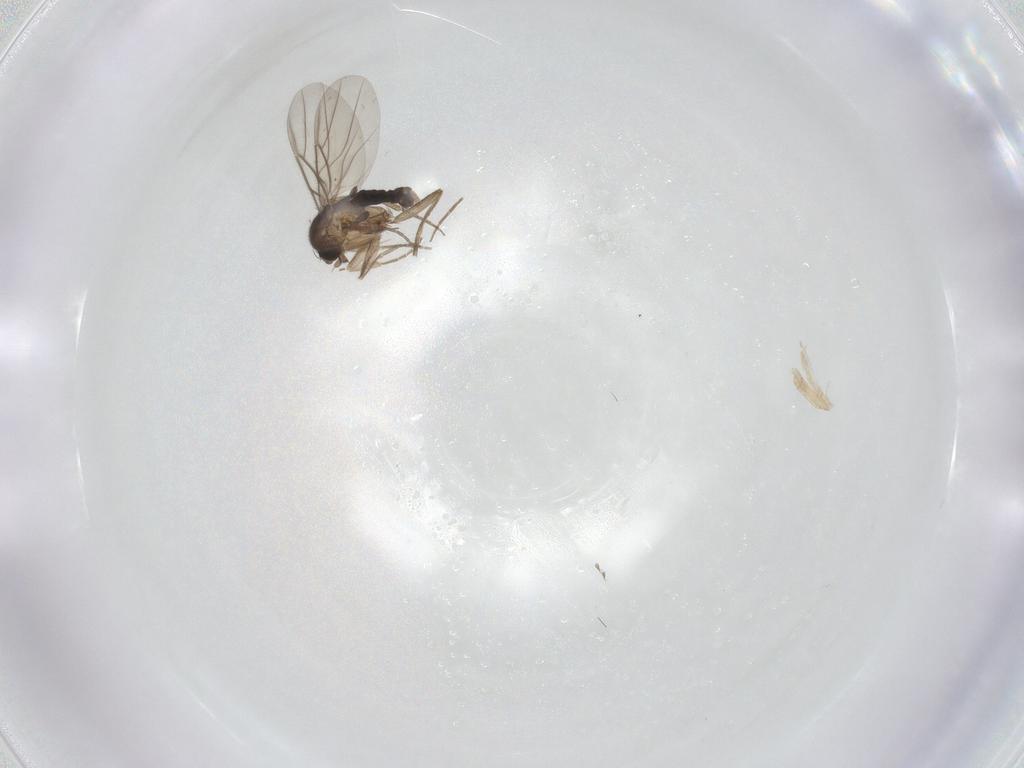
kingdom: Animalia
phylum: Arthropoda
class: Insecta
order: Diptera
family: Ceratopogonidae
